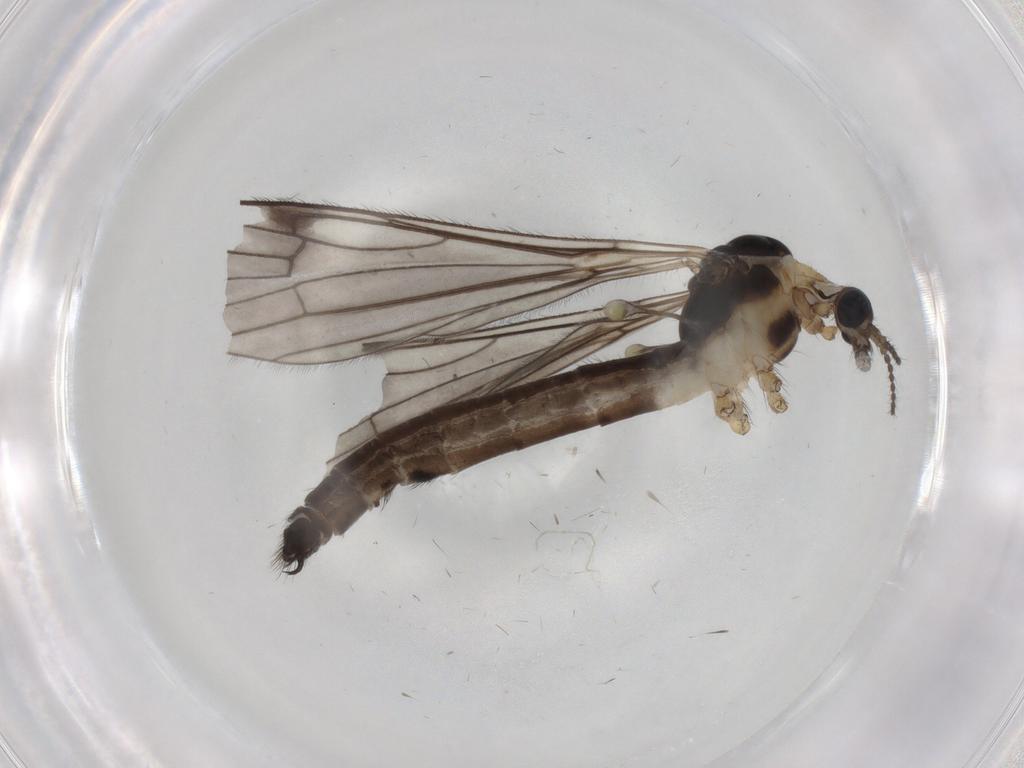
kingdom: Animalia
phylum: Arthropoda
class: Insecta
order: Diptera
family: Limoniidae
